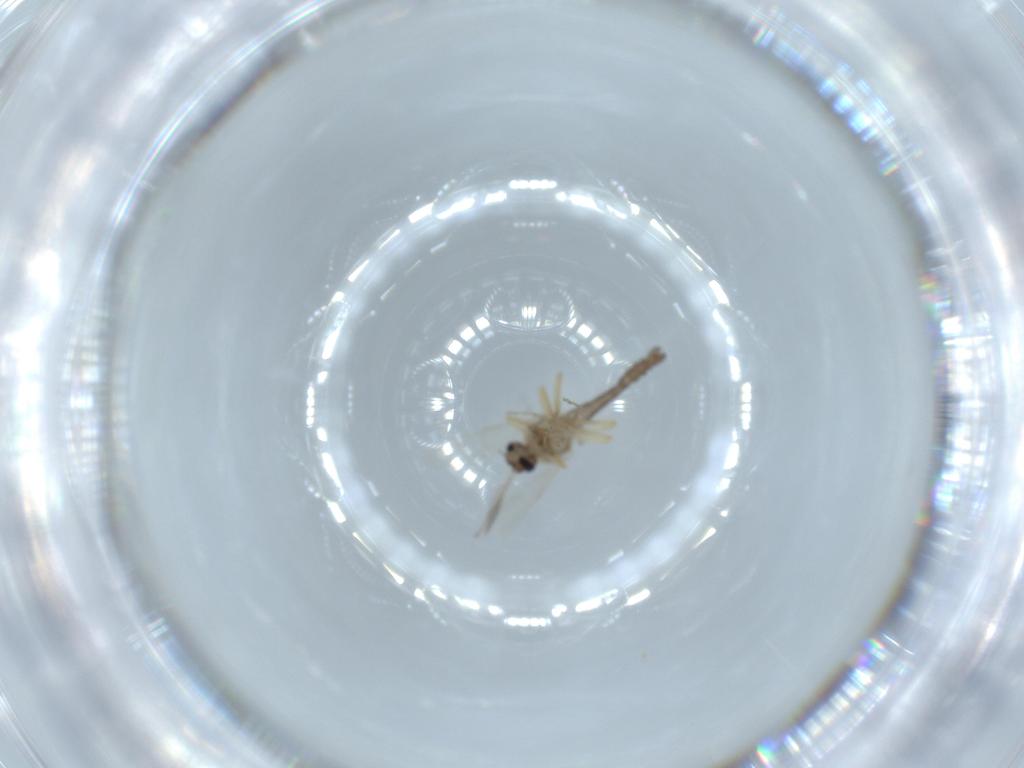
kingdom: Animalia
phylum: Arthropoda
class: Insecta
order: Diptera
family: Ceratopogonidae
